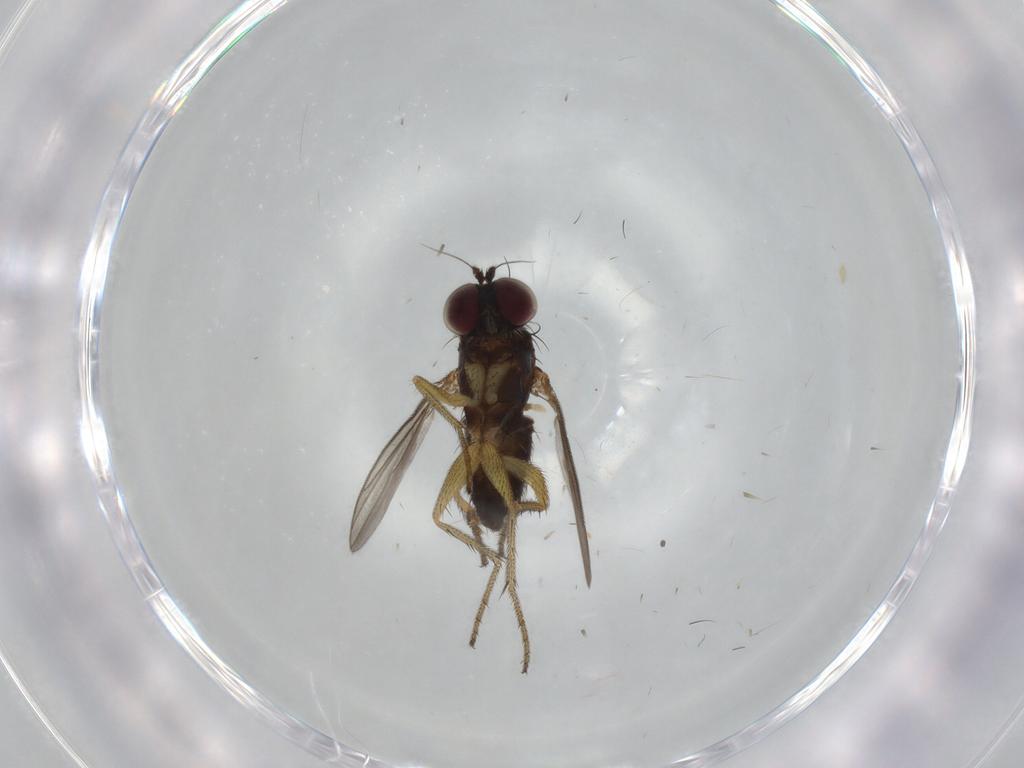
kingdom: Animalia
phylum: Arthropoda
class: Insecta
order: Diptera
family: Dolichopodidae
